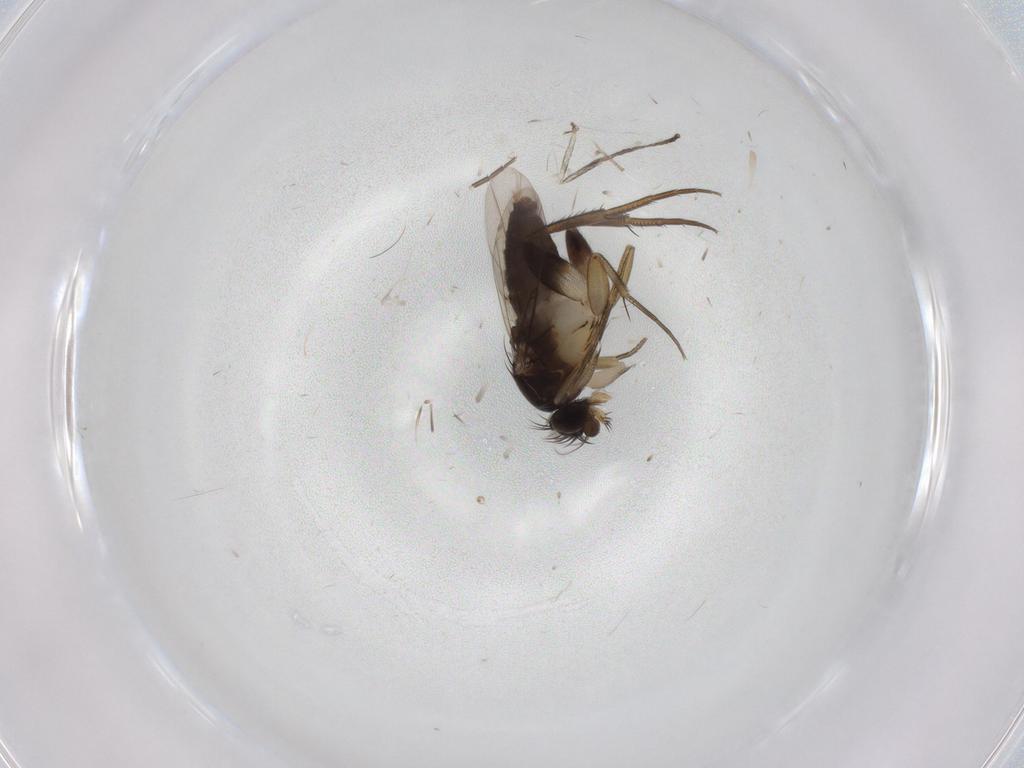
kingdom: Animalia
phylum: Arthropoda
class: Insecta
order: Diptera
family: Phoridae
